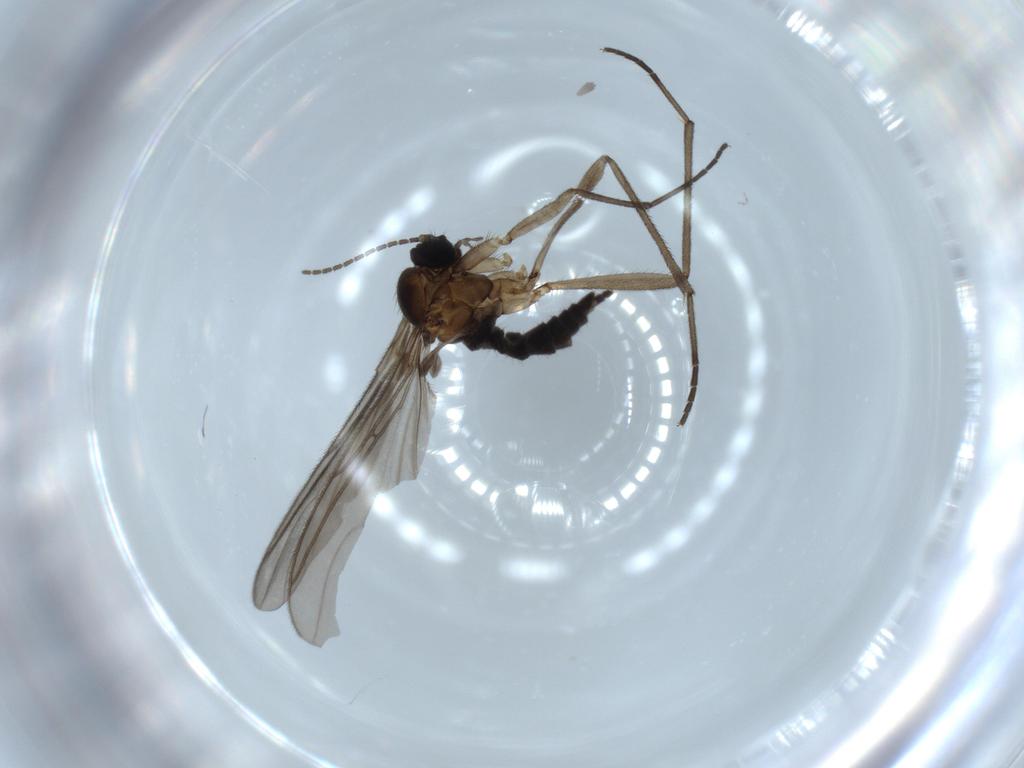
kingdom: Animalia
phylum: Arthropoda
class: Insecta
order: Diptera
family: Sciaridae
